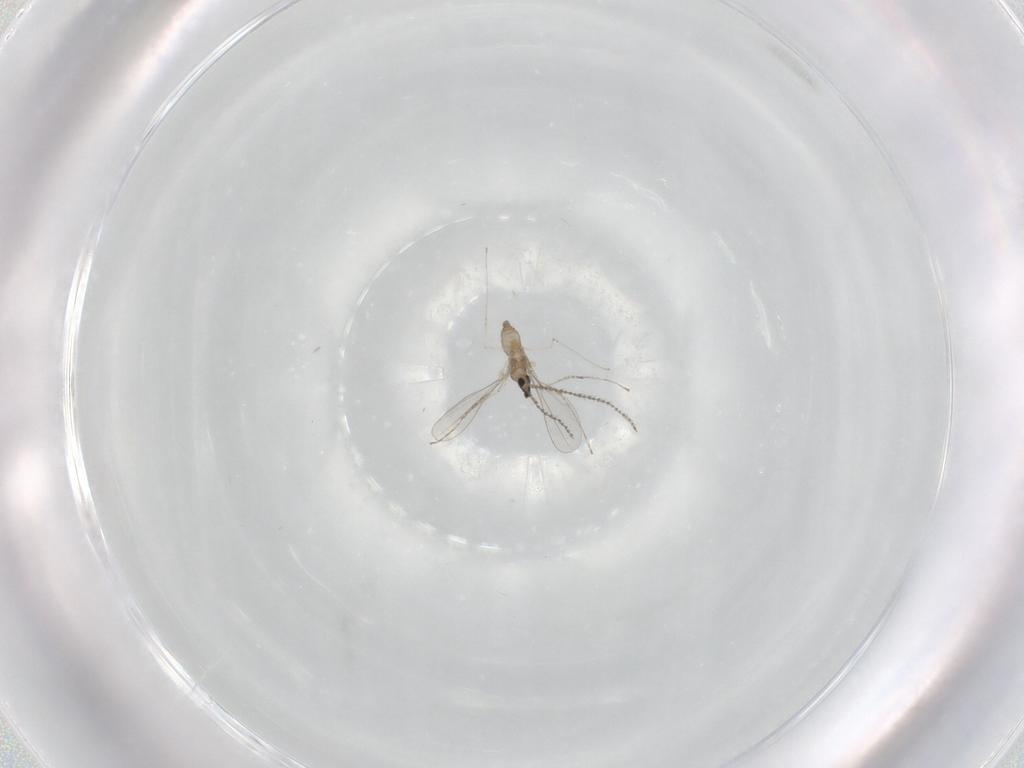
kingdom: Animalia
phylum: Arthropoda
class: Insecta
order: Diptera
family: Cecidomyiidae
